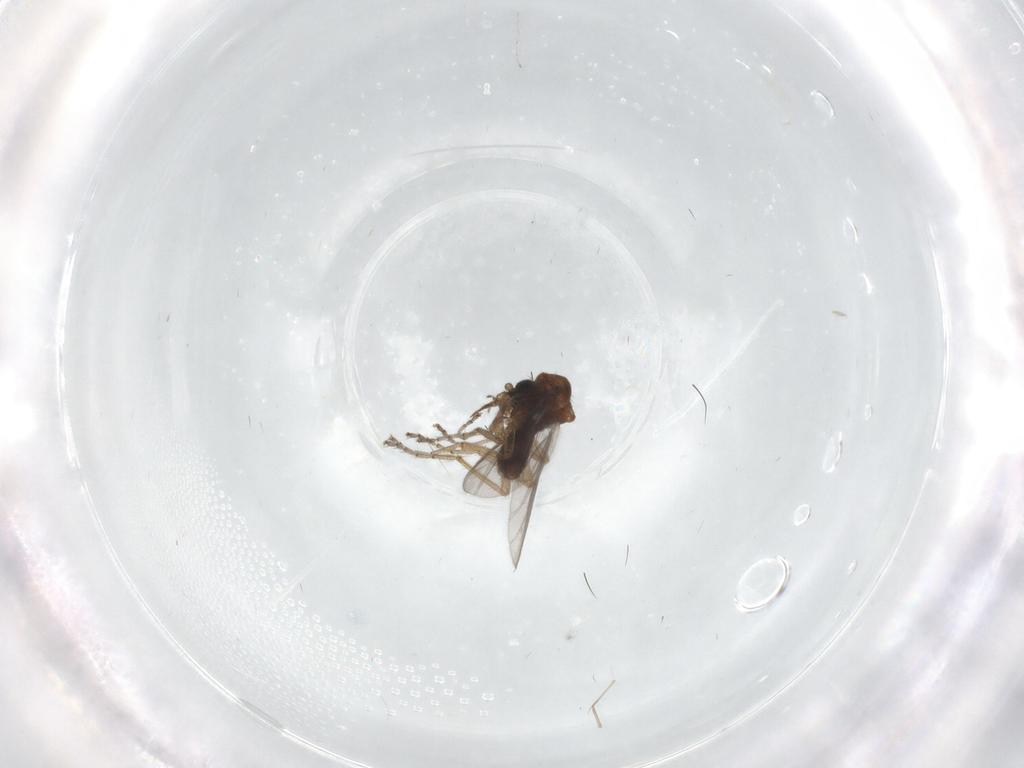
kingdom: Animalia
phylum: Arthropoda
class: Insecta
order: Diptera
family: Ceratopogonidae
